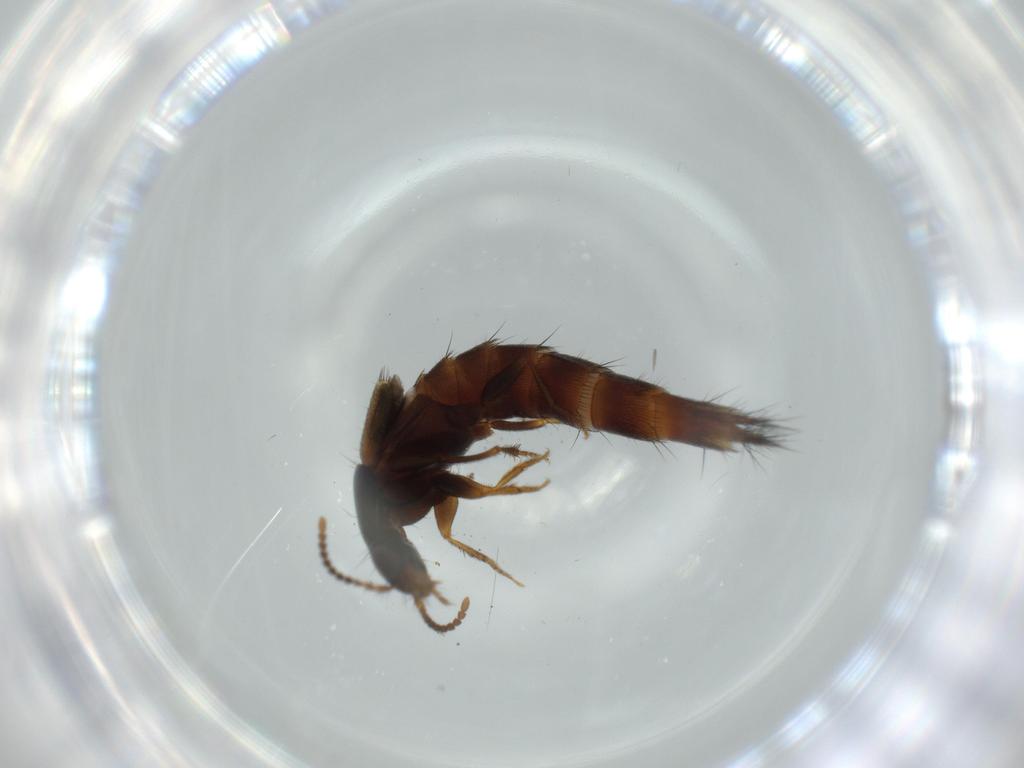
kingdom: Animalia
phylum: Arthropoda
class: Insecta
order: Coleoptera
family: Staphylinidae
